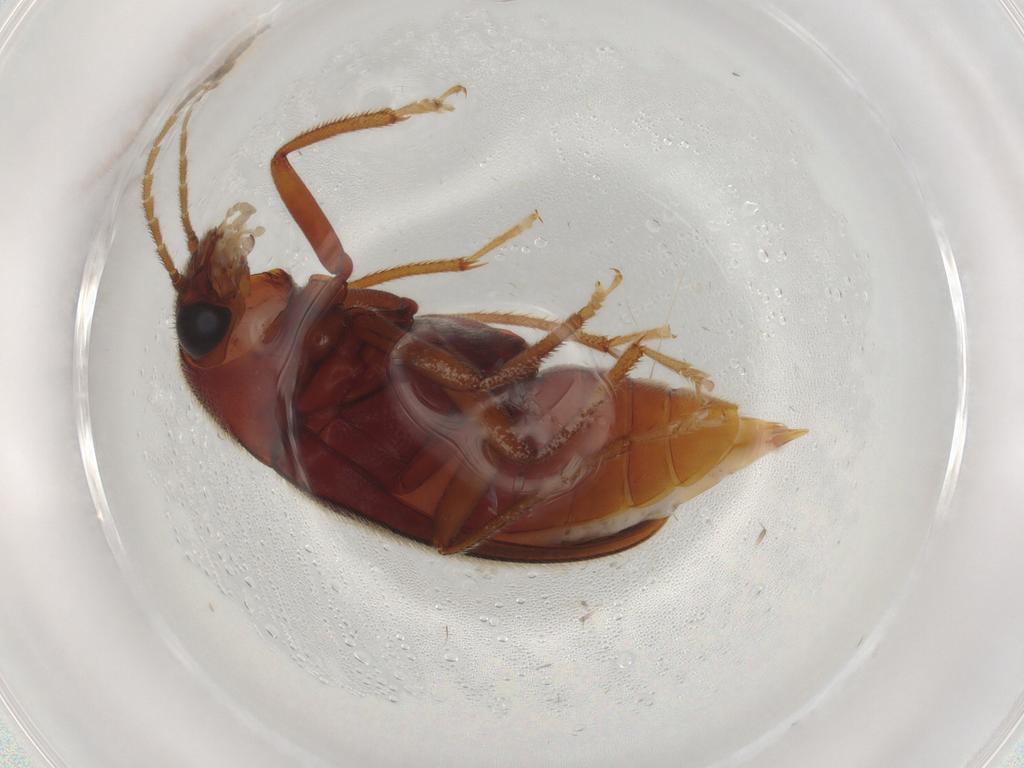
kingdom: Animalia
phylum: Arthropoda
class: Insecta
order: Coleoptera
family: Ptilodactylidae
